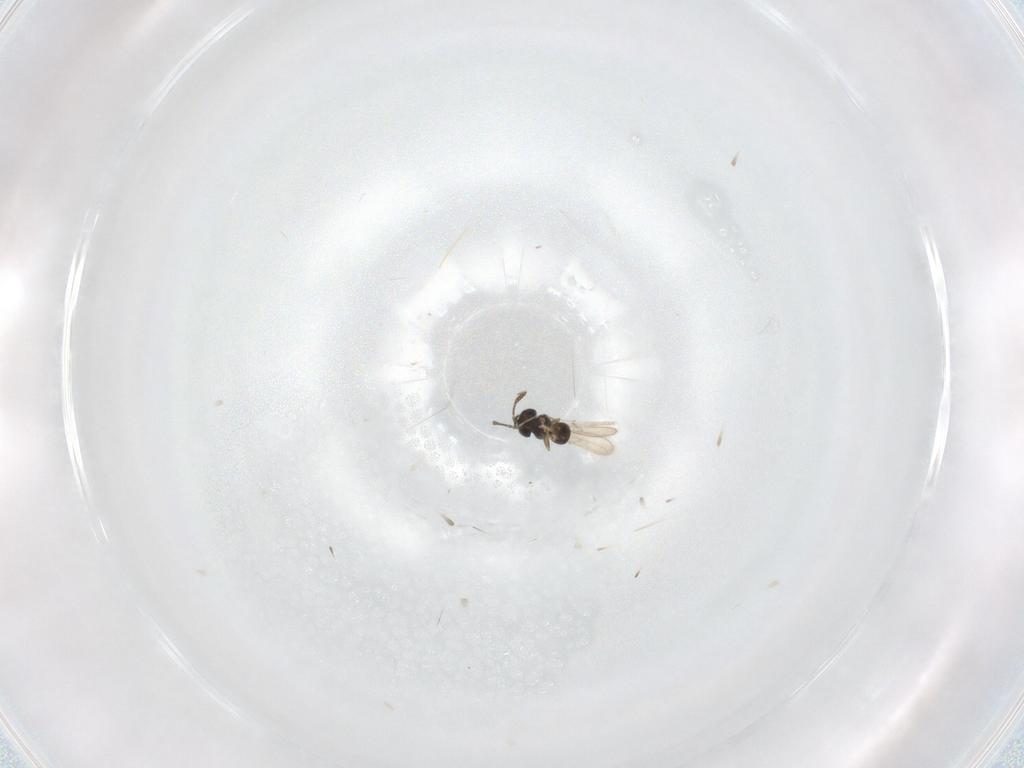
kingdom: Animalia
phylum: Arthropoda
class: Insecta
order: Hymenoptera
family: Scelionidae
